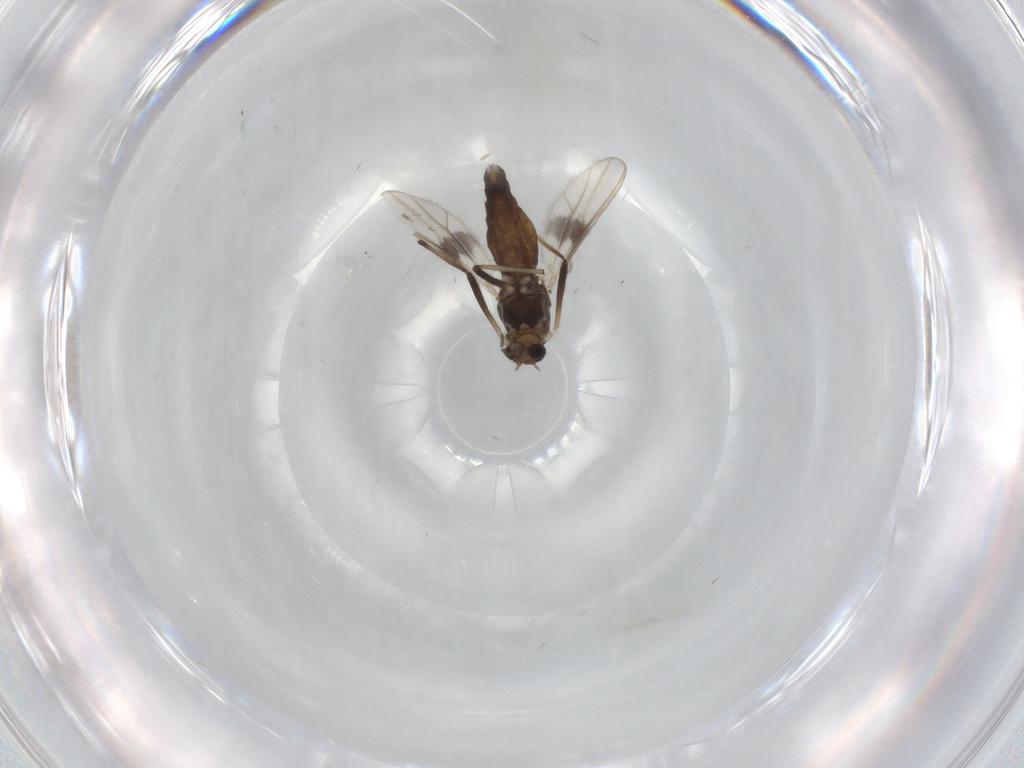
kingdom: Animalia
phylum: Arthropoda
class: Insecta
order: Diptera
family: Chironomidae
